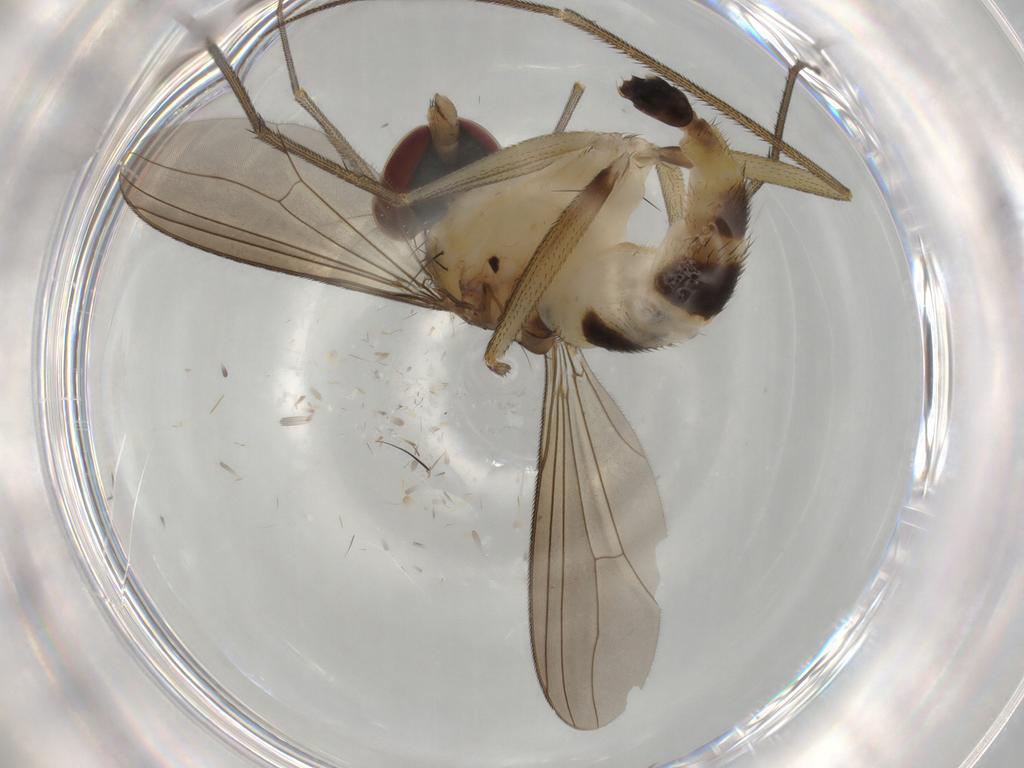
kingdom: Animalia
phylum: Arthropoda
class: Insecta
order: Diptera
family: Dolichopodidae
